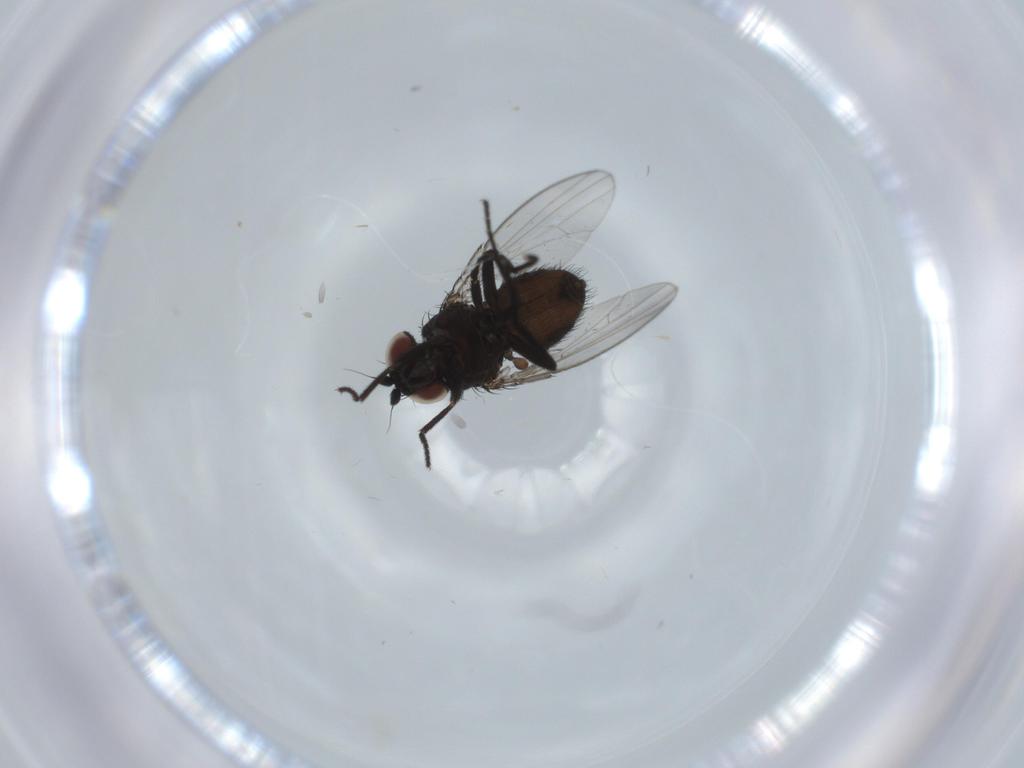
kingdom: Animalia
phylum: Arthropoda
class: Insecta
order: Diptera
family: Milichiidae
